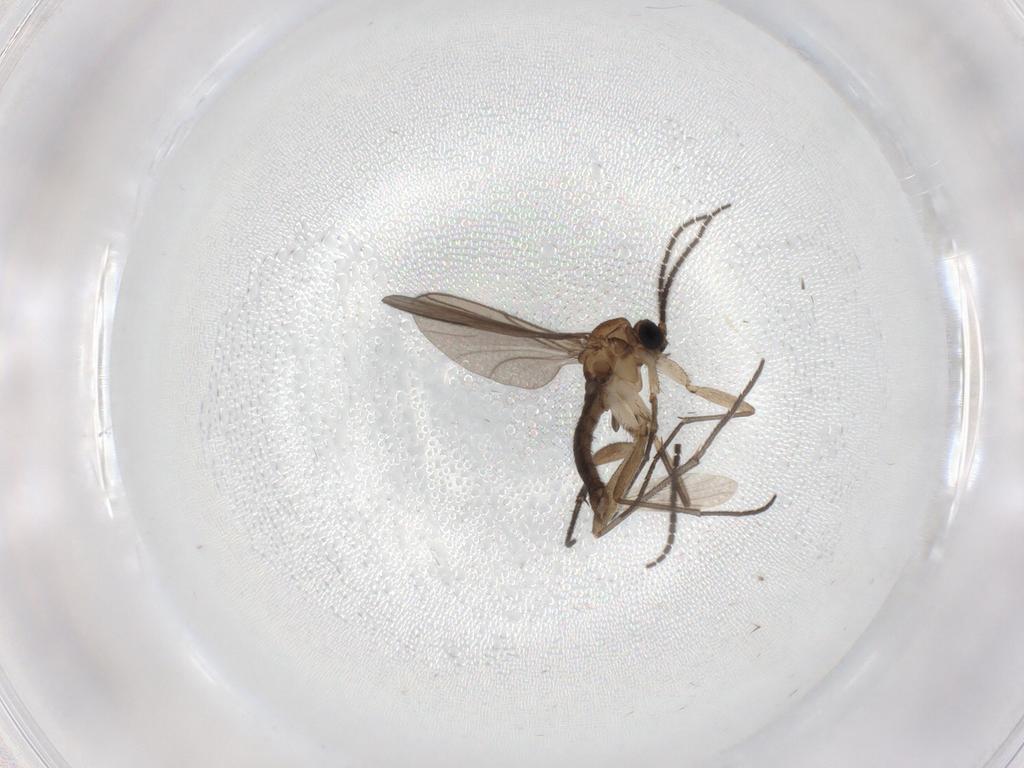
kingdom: Animalia
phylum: Arthropoda
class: Insecta
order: Diptera
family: Sciaridae
